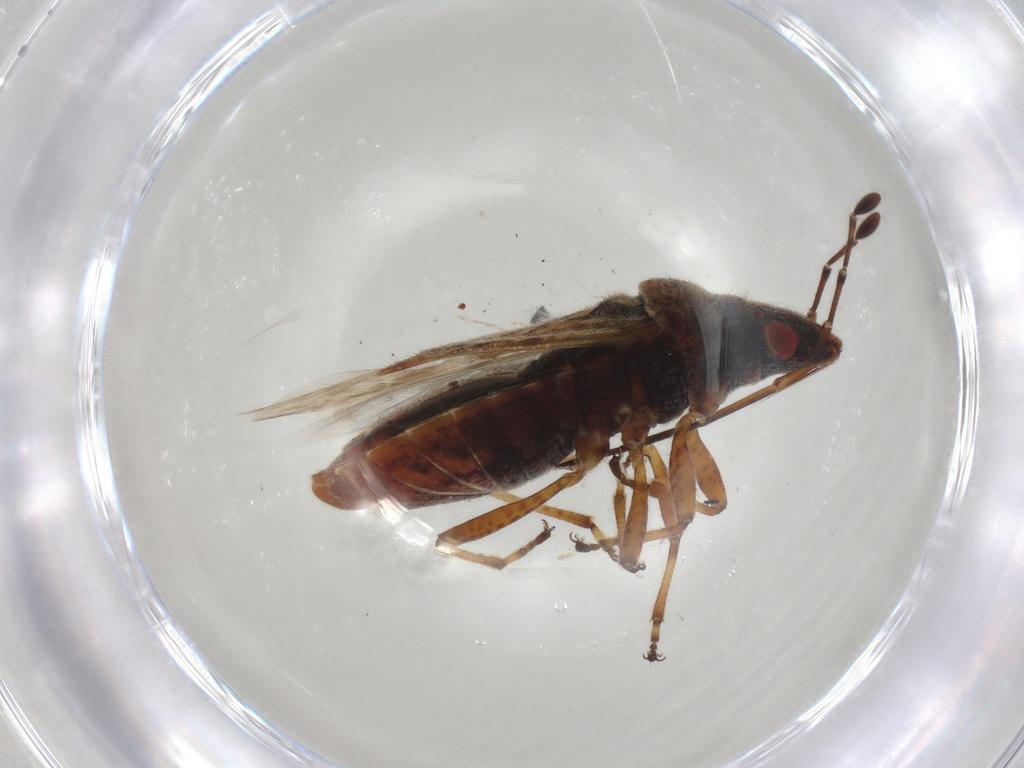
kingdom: Animalia
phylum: Arthropoda
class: Insecta
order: Hemiptera
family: Lygaeidae
